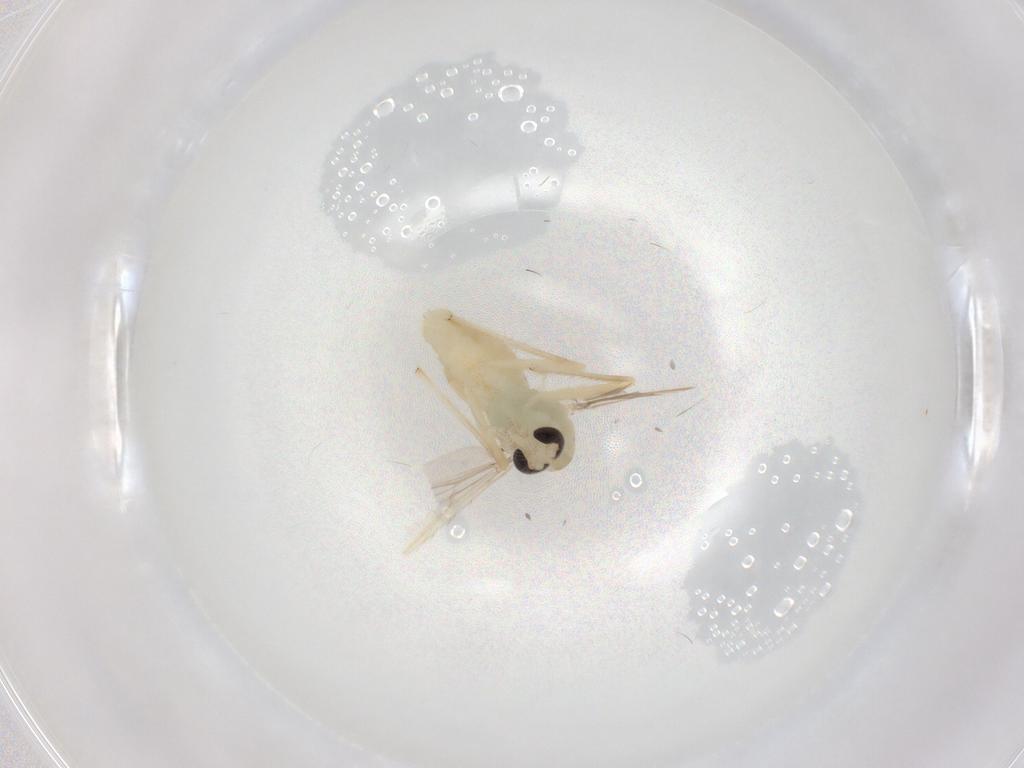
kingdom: Animalia
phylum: Arthropoda
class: Insecta
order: Diptera
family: Chironomidae
